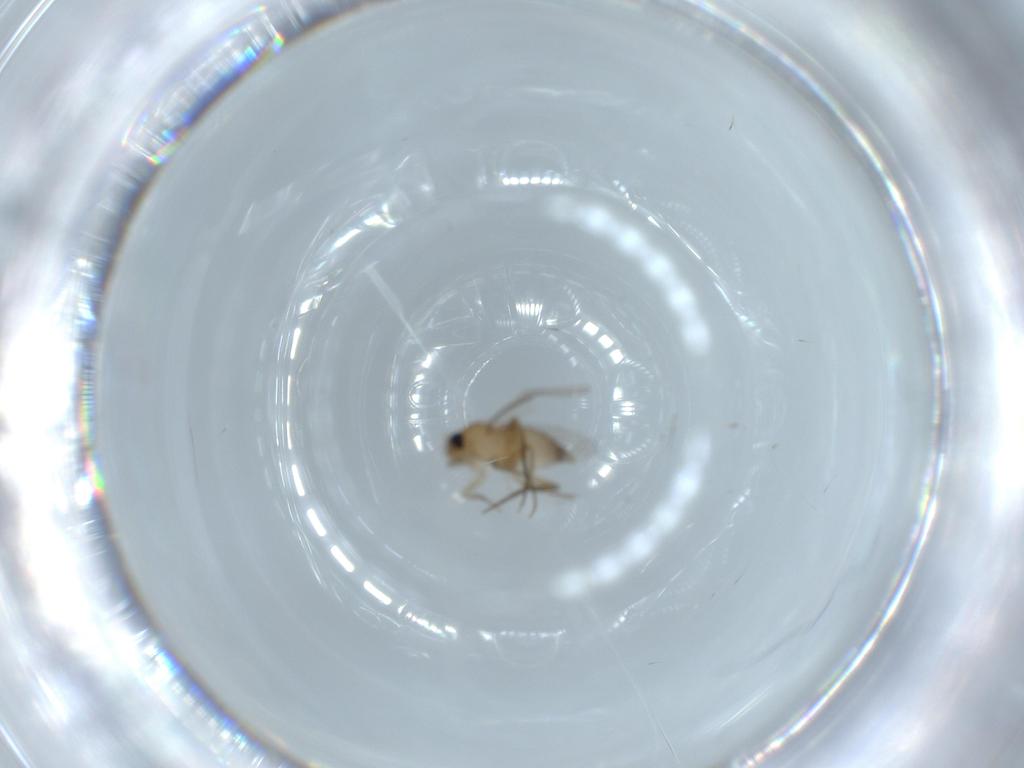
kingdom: Animalia
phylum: Arthropoda
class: Insecta
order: Diptera
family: Phoridae
